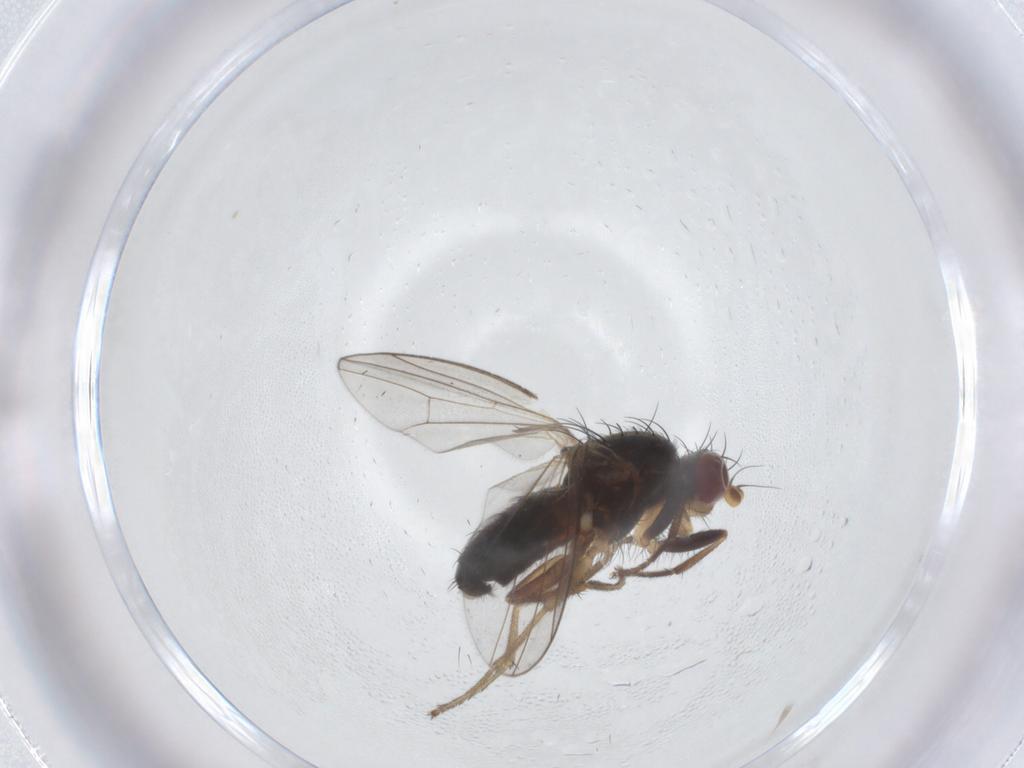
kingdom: Animalia
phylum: Arthropoda
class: Insecta
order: Diptera
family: Heleomyzidae
